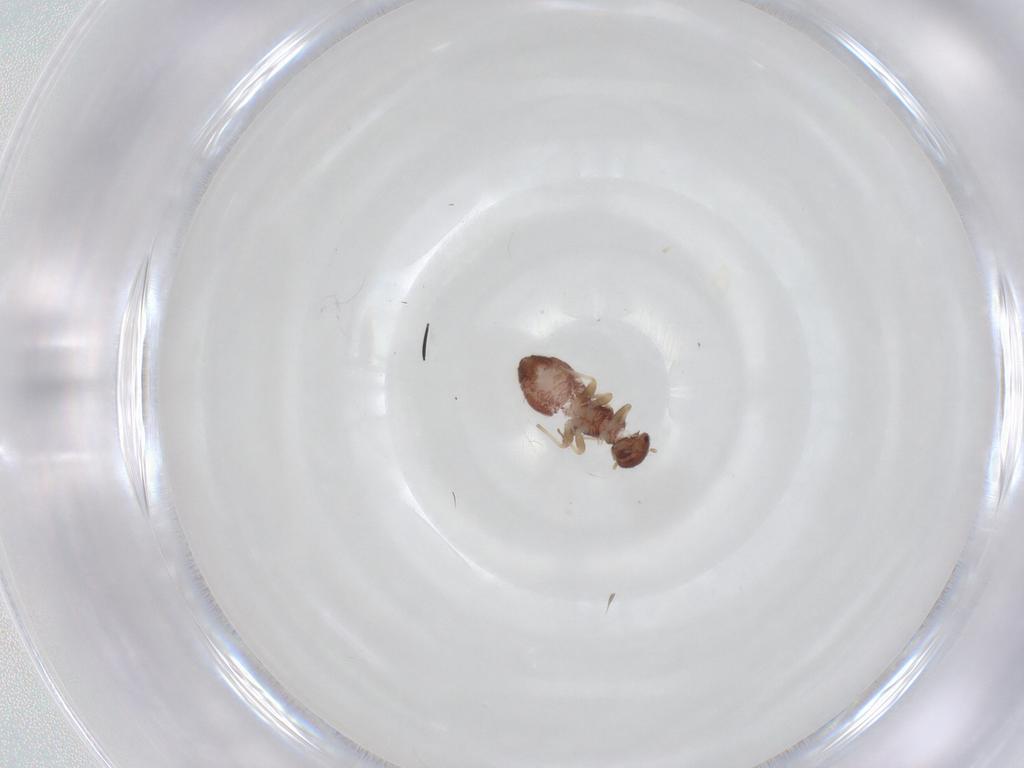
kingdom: Animalia
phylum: Arthropoda
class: Insecta
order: Psocodea
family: Archipsocidae
